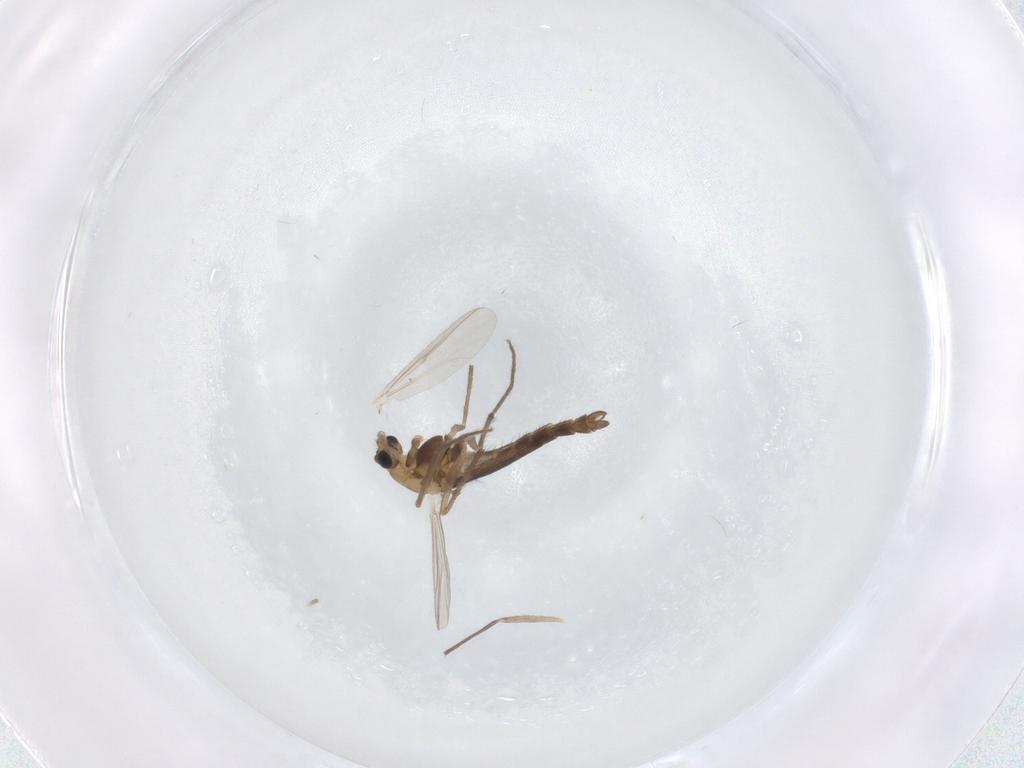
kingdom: Animalia
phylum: Arthropoda
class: Insecta
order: Diptera
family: Chironomidae
